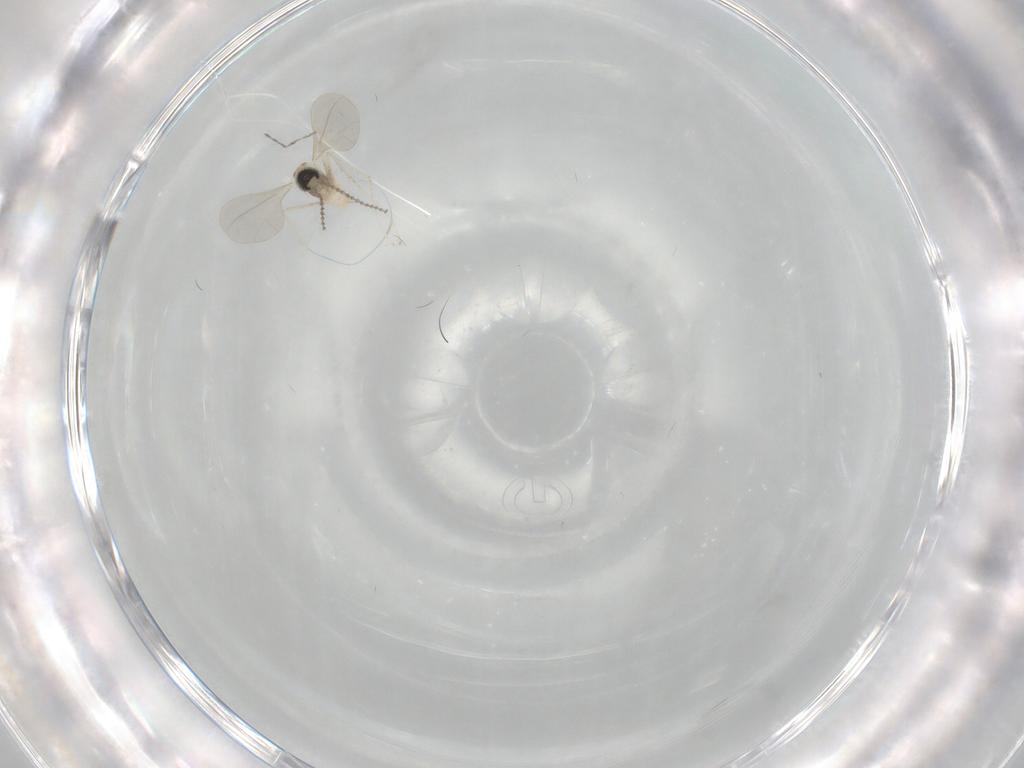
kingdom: Animalia
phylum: Arthropoda
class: Insecta
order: Diptera
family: Cecidomyiidae
